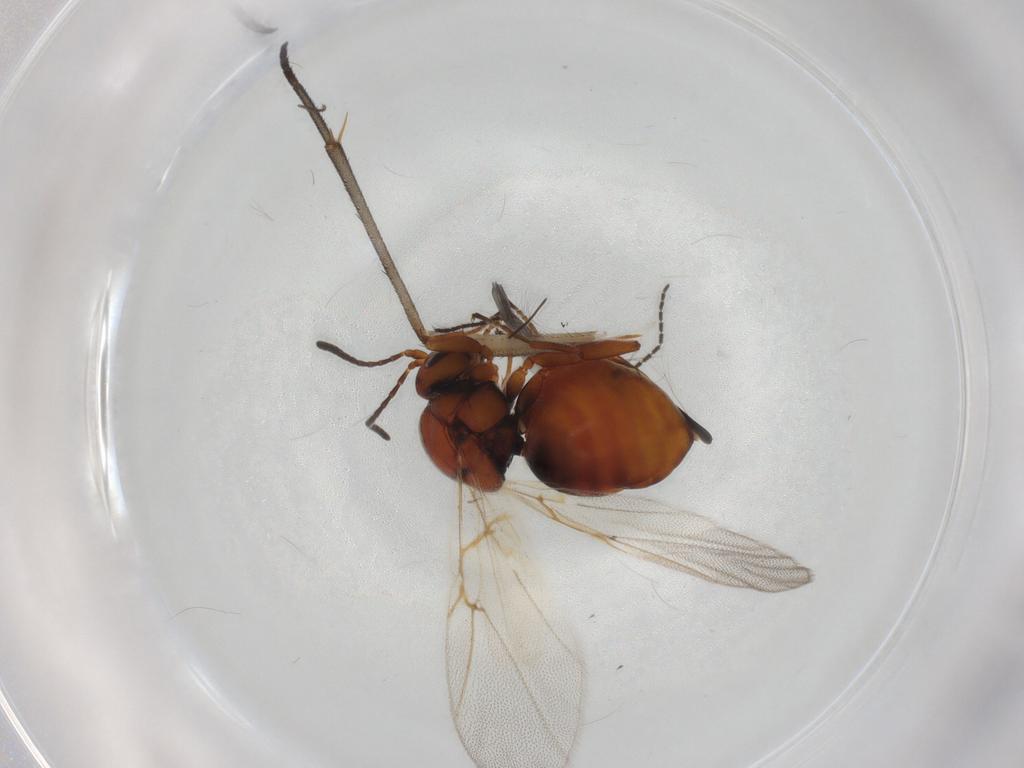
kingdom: Animalia
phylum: Arthropoda
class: Insecta
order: Hymenoptera
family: Cynipidae
